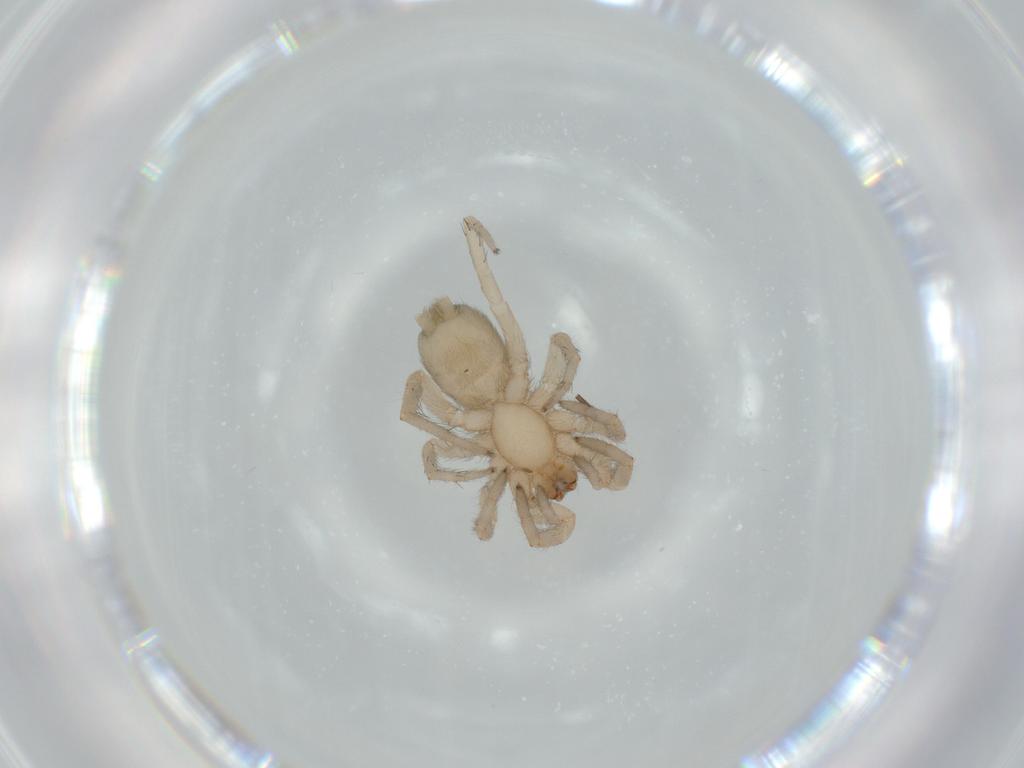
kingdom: Animalia
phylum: Arthropoda
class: Arachnida
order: Araneae
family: Gnaphosidae
